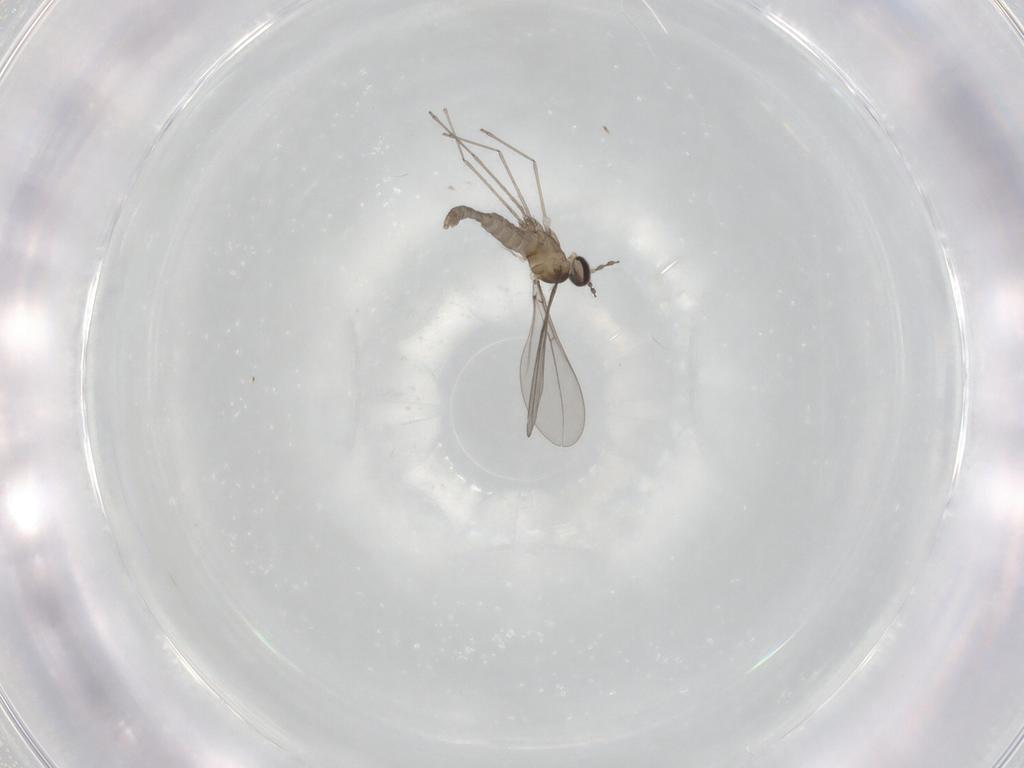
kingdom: Animalia
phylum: Arthropoda
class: Insecta
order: Diptera
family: Cecidomyiidae
